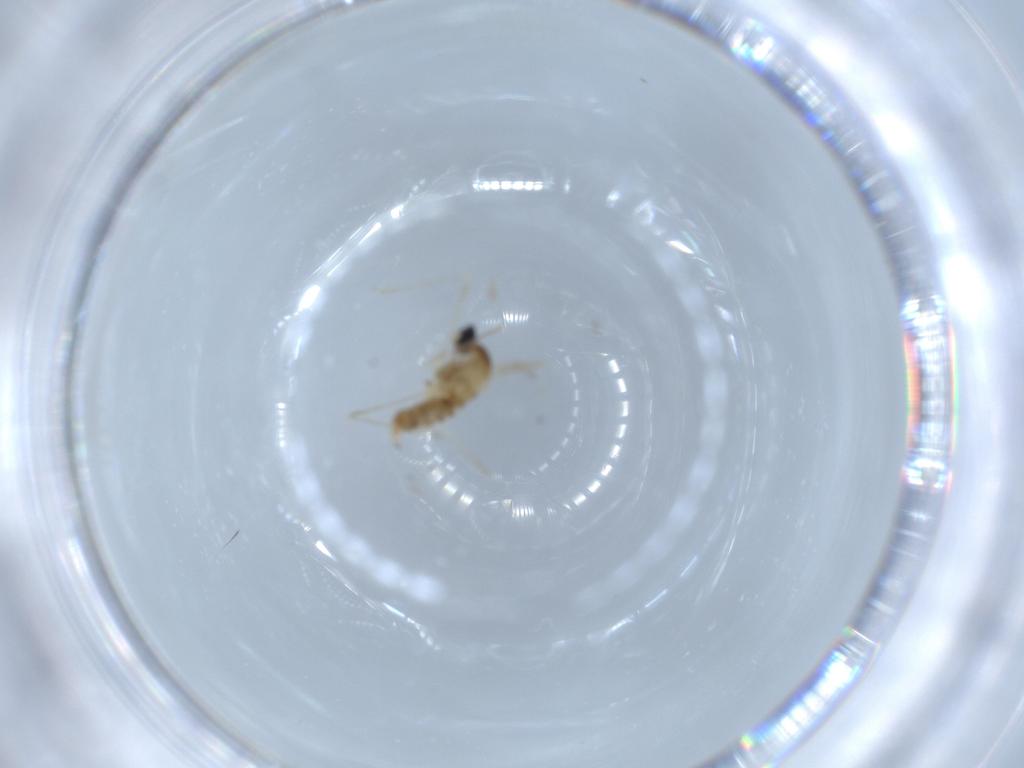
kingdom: Animalia
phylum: Arthropoda
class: Insecta
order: Diptera
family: Cecidomyiidae
